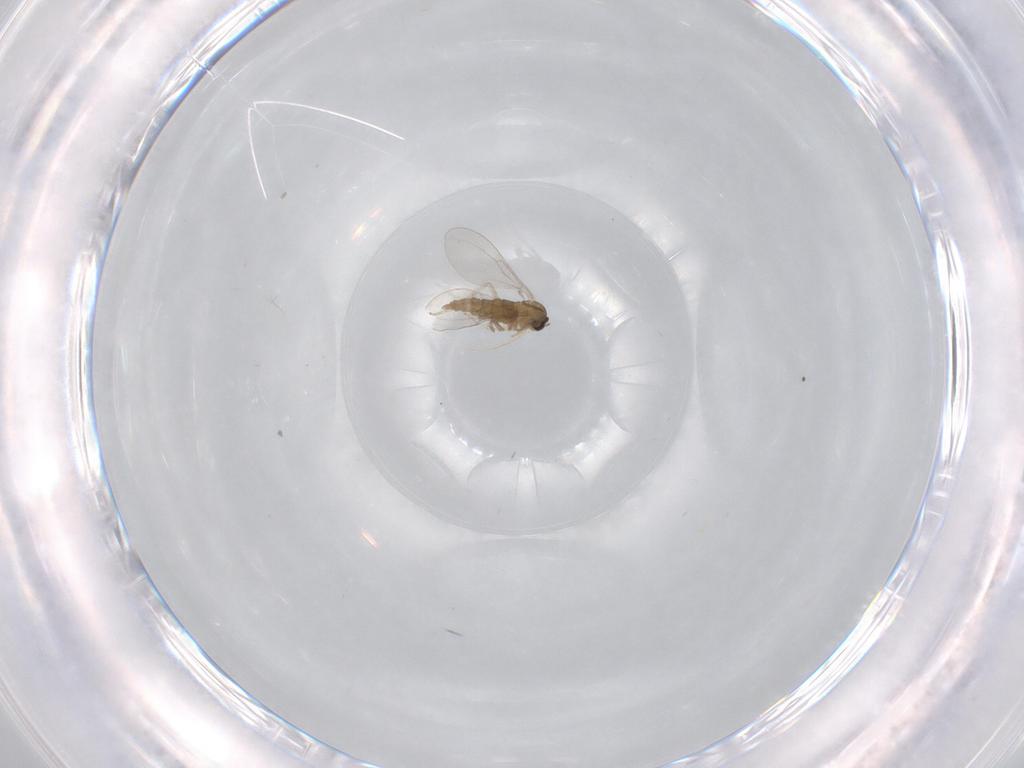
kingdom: Animalia
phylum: Arthropoda
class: Insecta
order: Diptera
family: Cecidomyiidae
